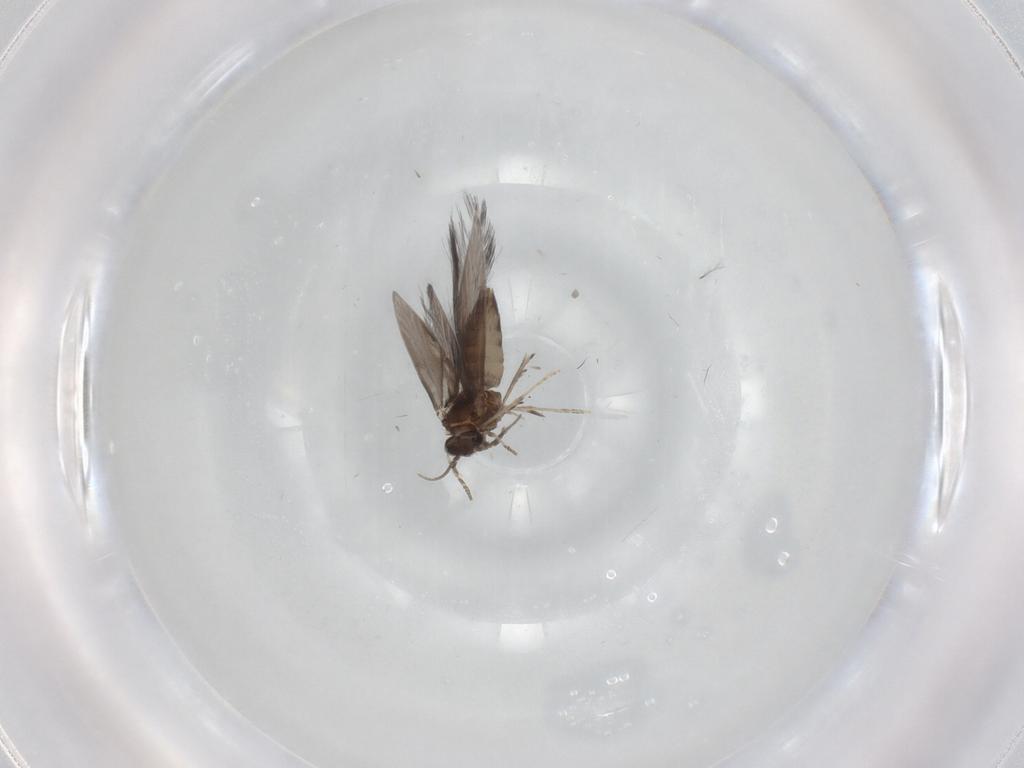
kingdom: Animalia
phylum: Arthropoda
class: Insecta
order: Trichoptera
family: Hydroptilidae
